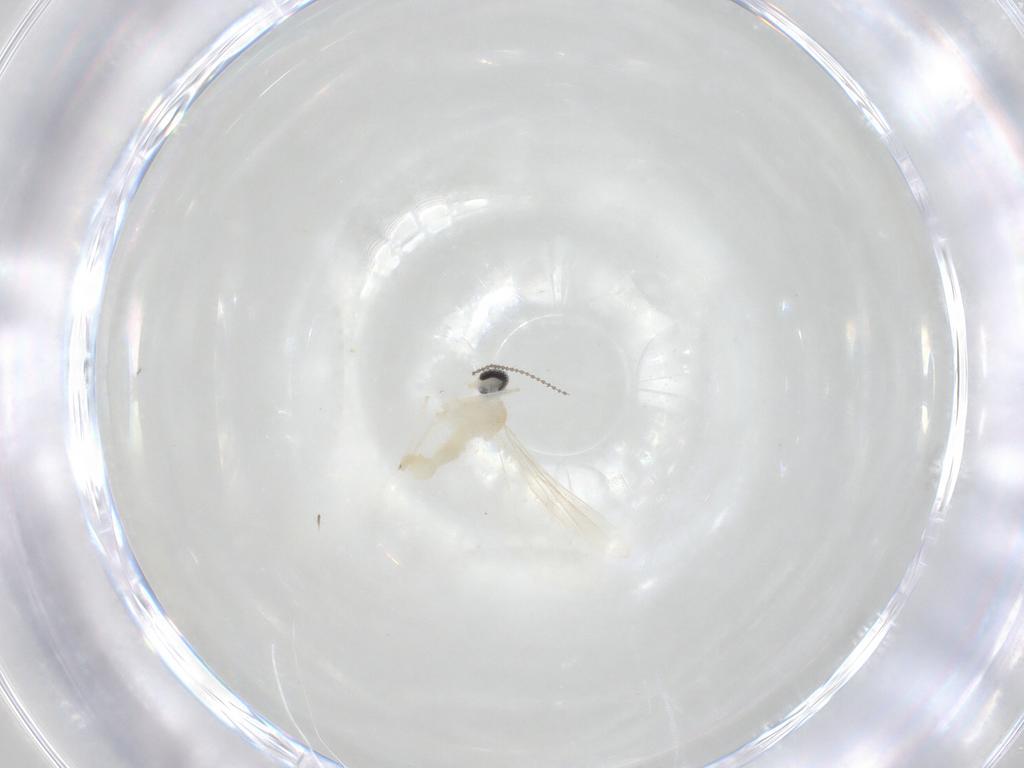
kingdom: Animalia
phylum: Arthropoda
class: Insecta
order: Diptera
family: Cecidomyiidae
